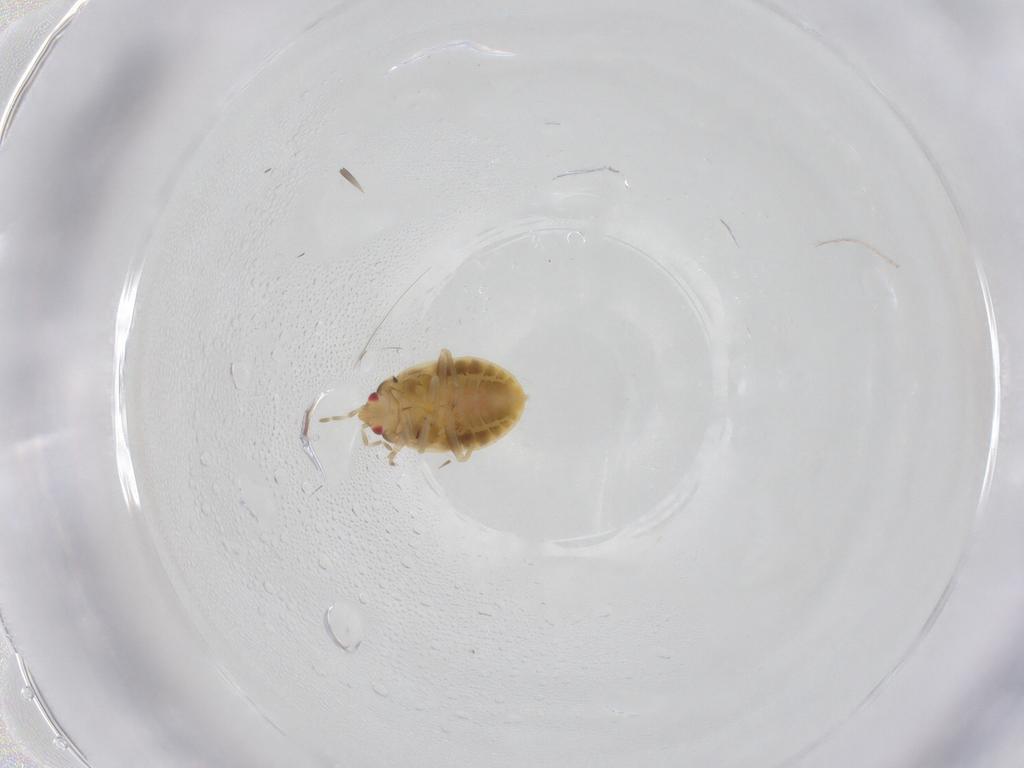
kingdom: Animalia
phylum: Arthropoda
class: Insecta
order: Hemiptera
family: Anthocoridae
